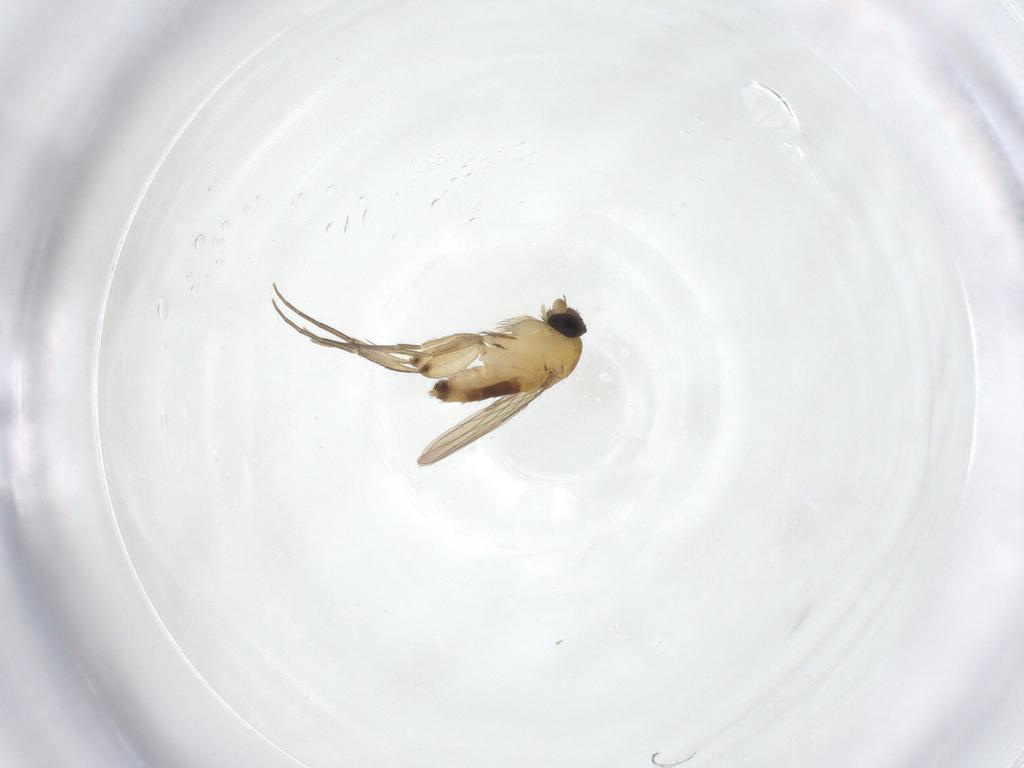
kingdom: Animalia
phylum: Arthropoda
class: Insecta
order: Diptera
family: Phoridae
